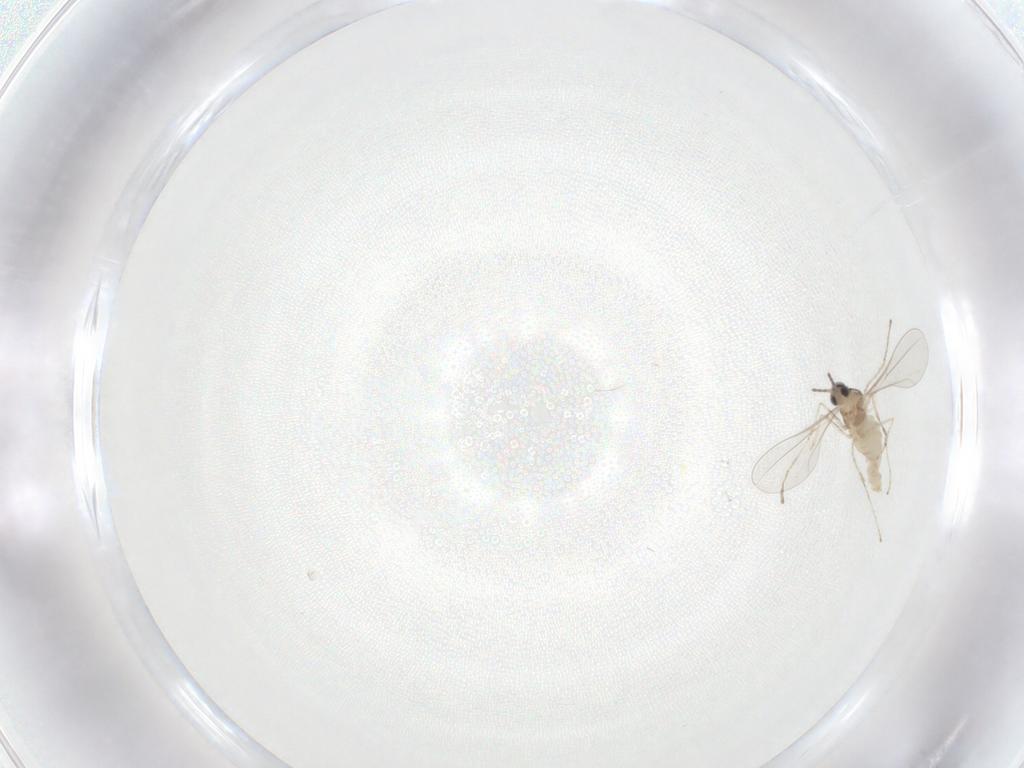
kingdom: Animalia
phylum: Arthropoda
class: Insecta
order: Diptera
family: Cecidomyiidae
